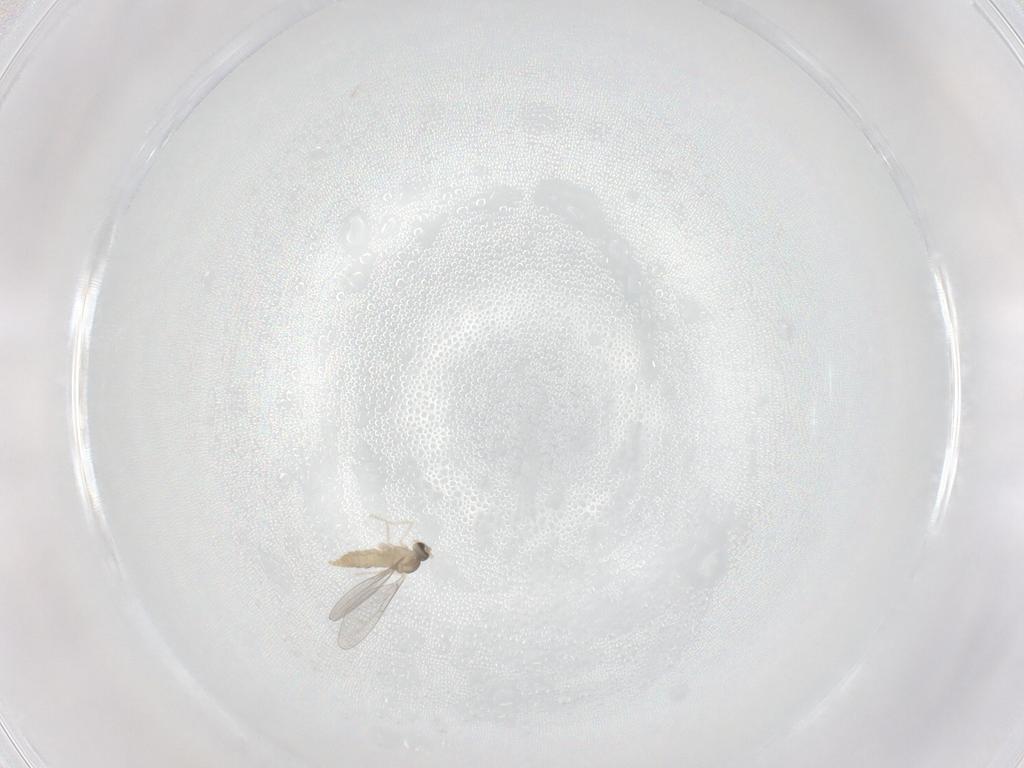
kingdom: Animalia
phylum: Arthropoda
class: Insecta
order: Diptera
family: Cecidomyiidae
